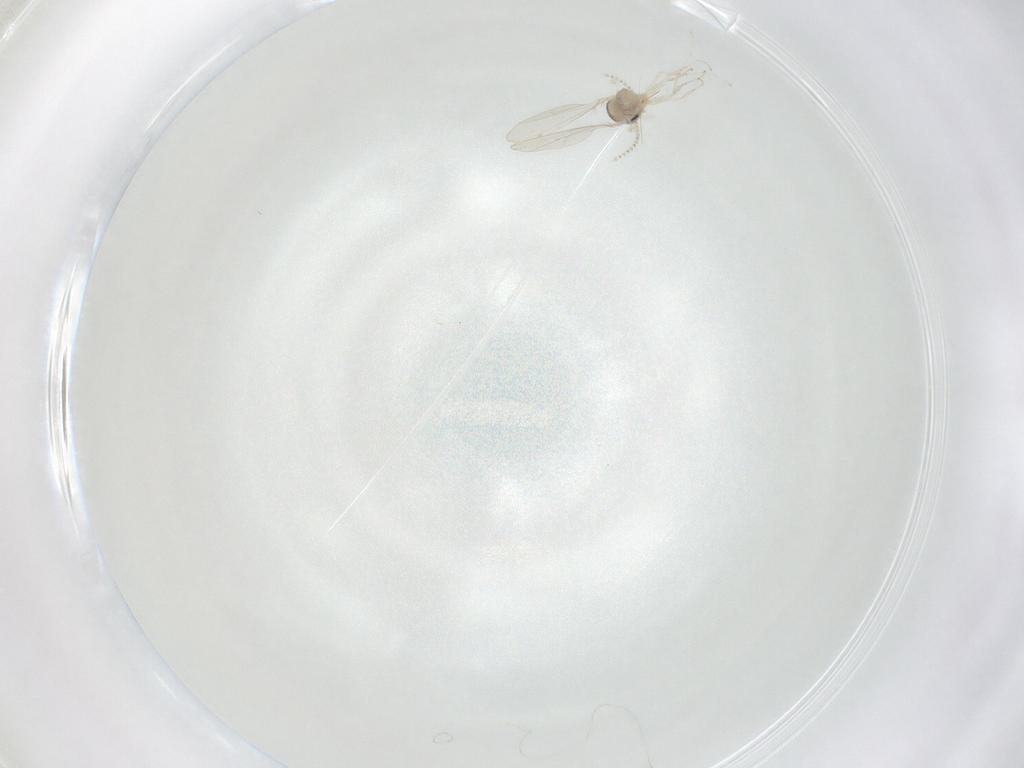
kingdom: Animalia
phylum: Arthropoda
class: Insecta
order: Diptera
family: Cecidomyiidae
